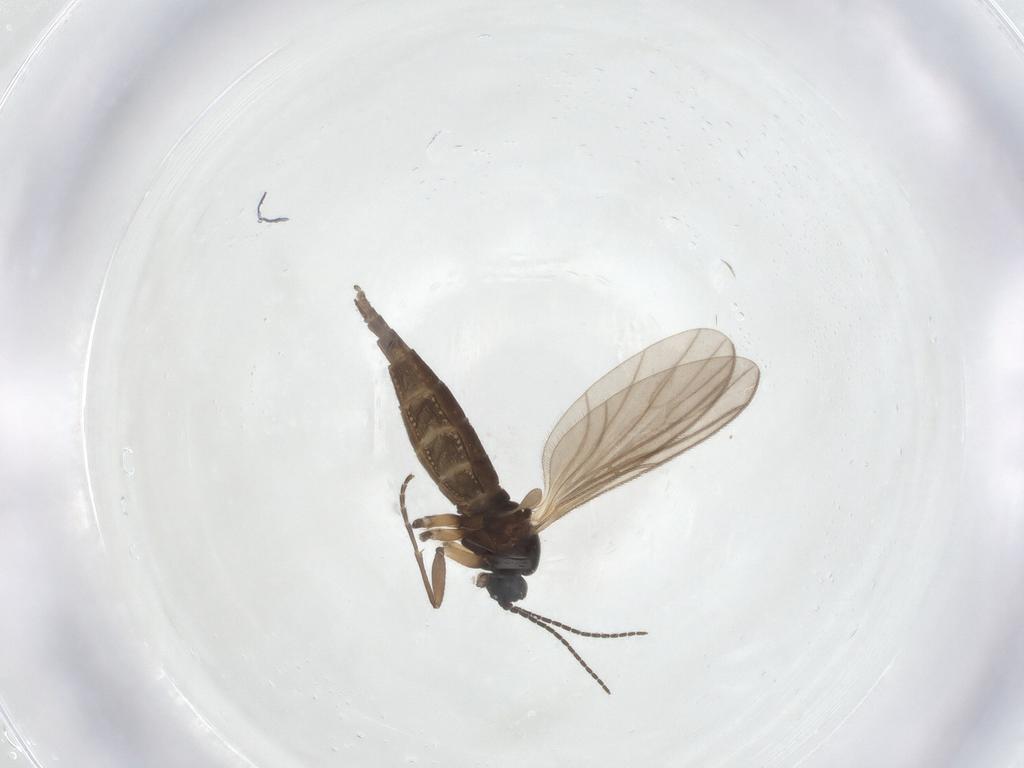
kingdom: Animalia
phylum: Arthropoda
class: Insecta
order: Diptera
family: Sciaridae
